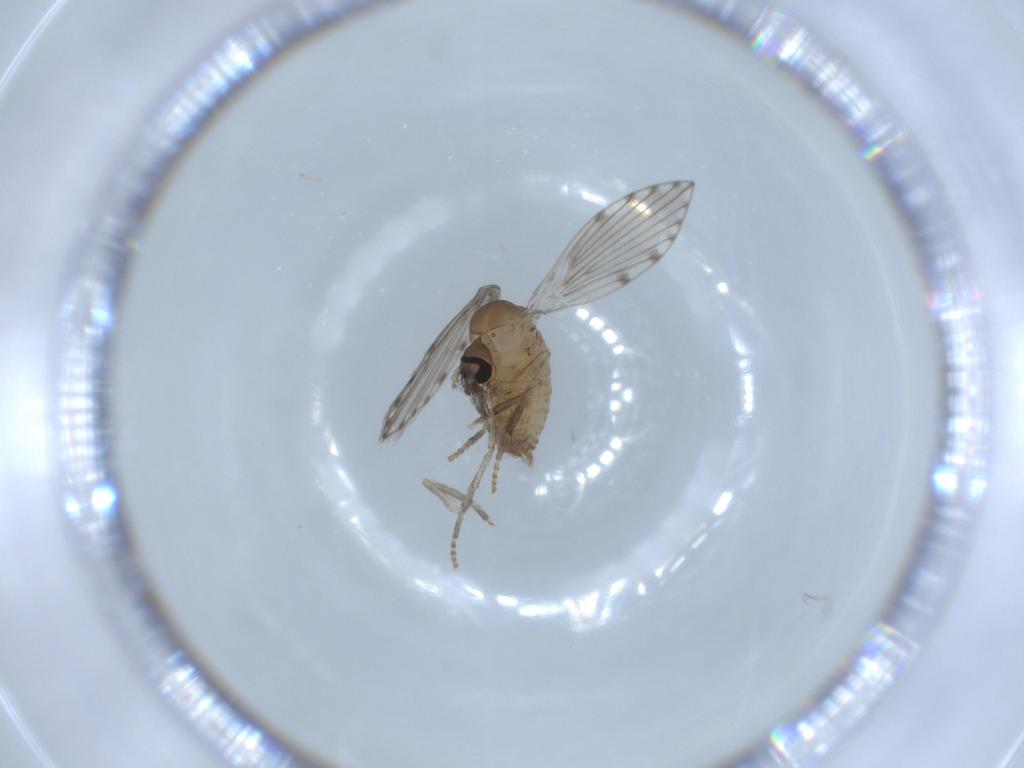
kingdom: Animalia
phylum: Arthropoda
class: Insecta
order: Diptera
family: Psychodidae
